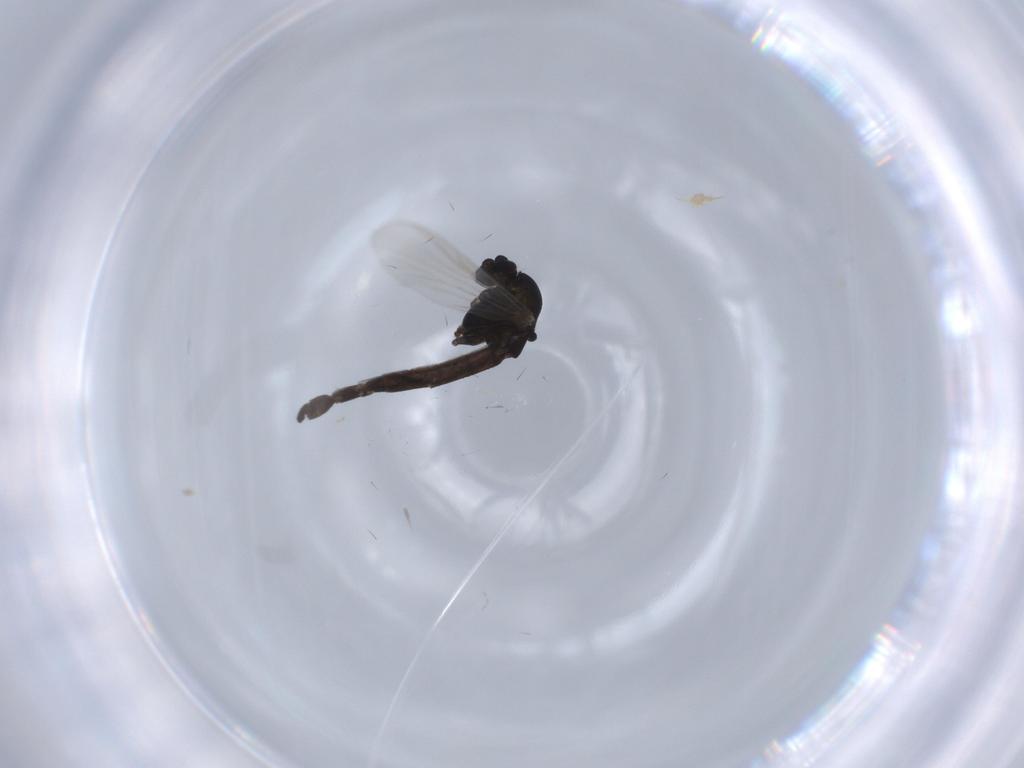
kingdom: Animalia
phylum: Arthropoda
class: Insecta
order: Diptera
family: Chironomidae
